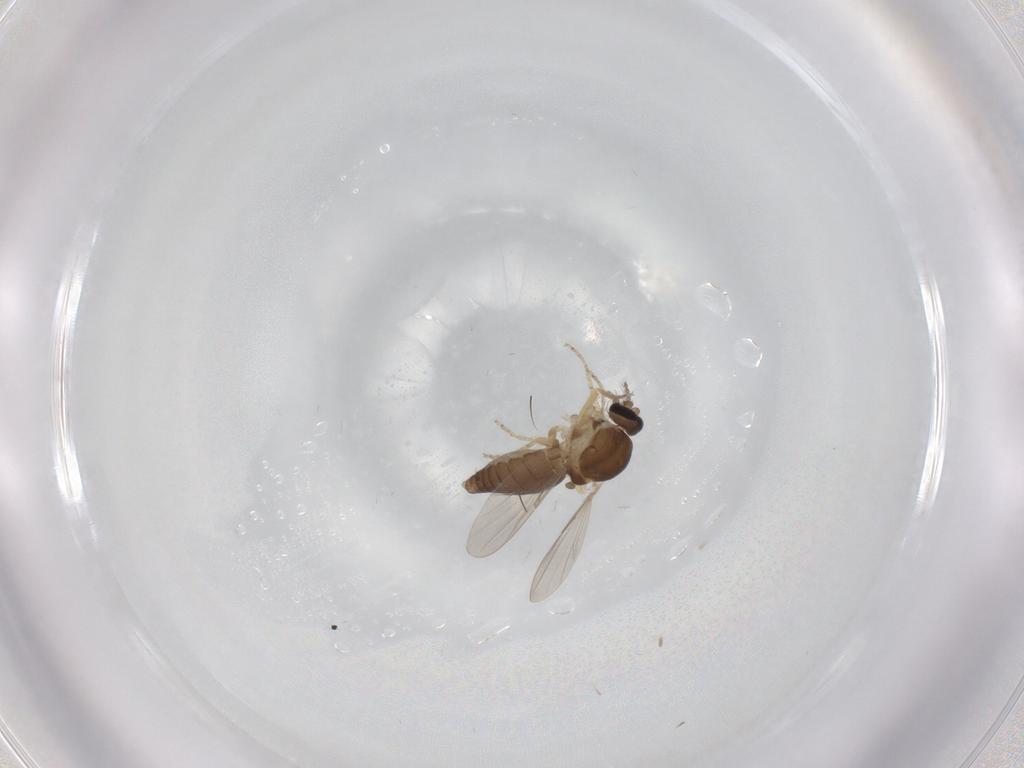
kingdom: Animalia
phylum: Arthropoda
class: Insecta
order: Diptera
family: Ceratopogonidae
